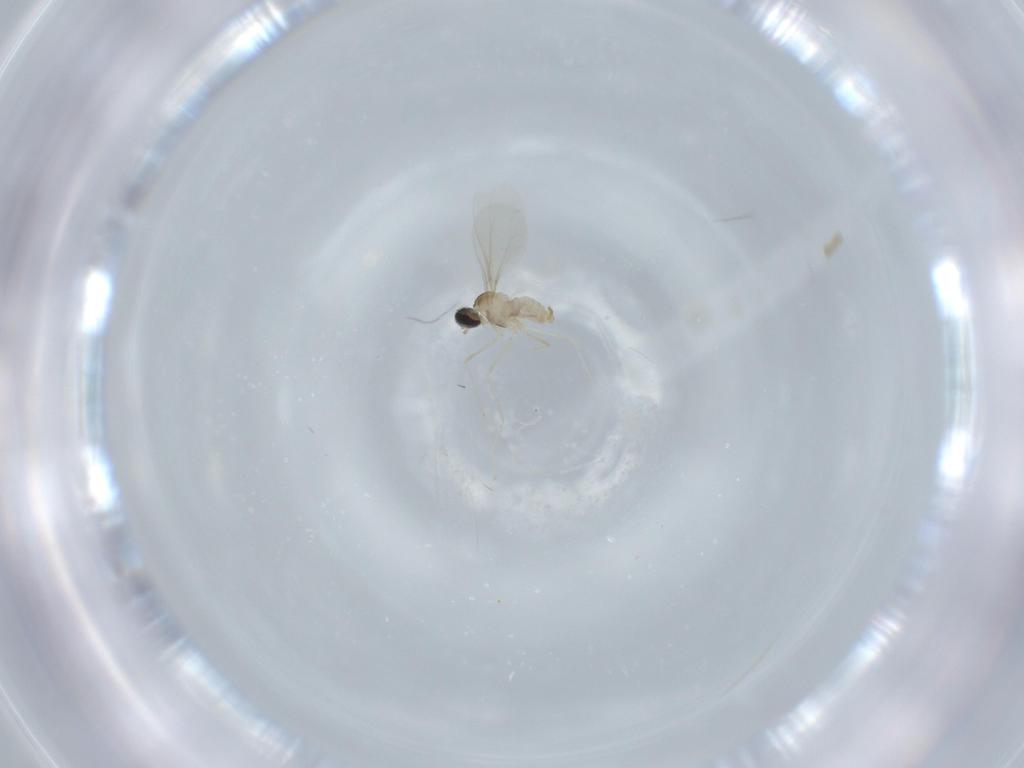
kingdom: Animalia
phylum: Arthropoda
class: Insecta
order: Diptera
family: Cecidomyiidae
